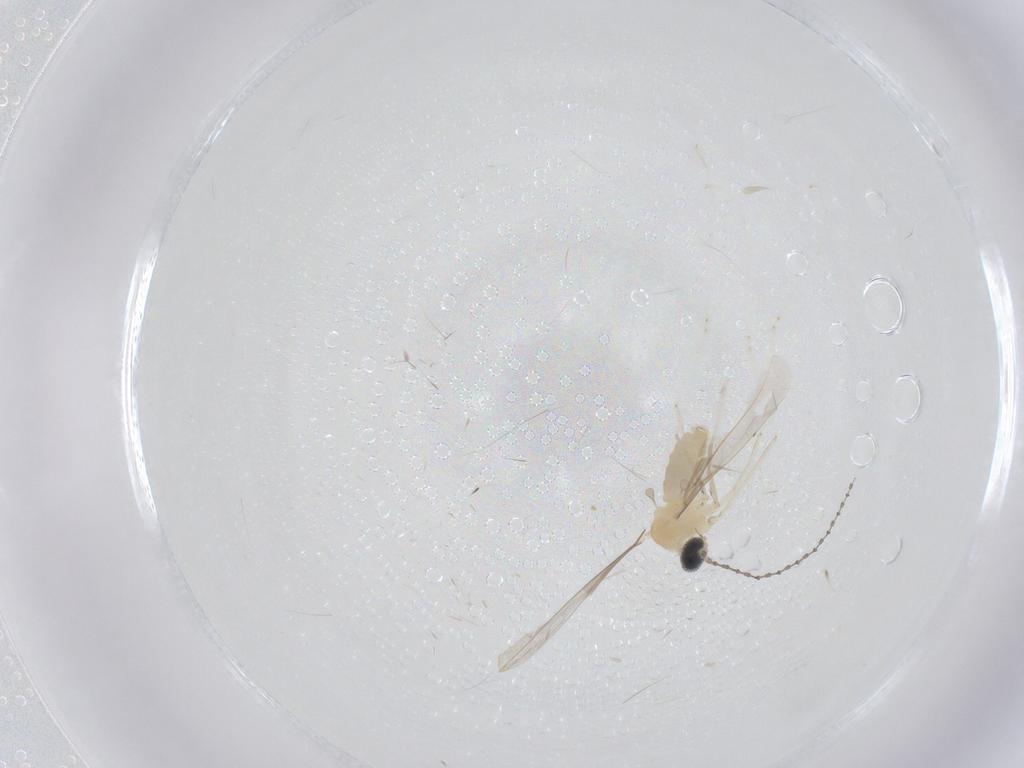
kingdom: Animalia
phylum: Arthropoda
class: Insecta
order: Diptera
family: Cecidomyiidae
